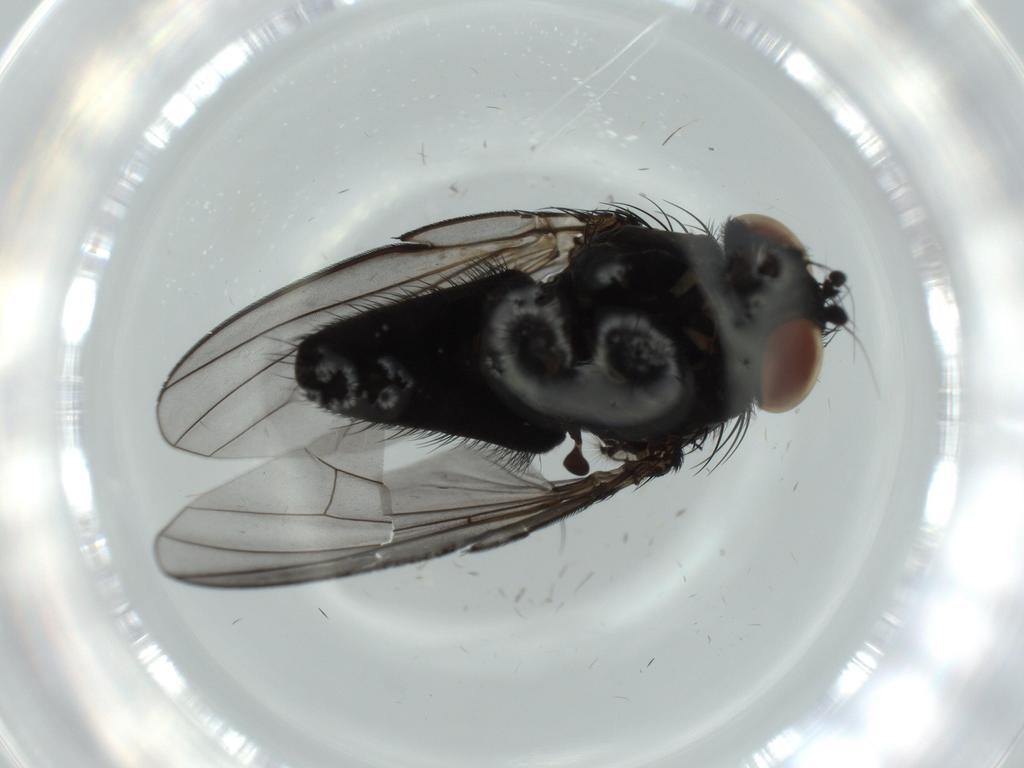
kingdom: Animalia
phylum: Arthropoda
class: Insecta
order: Diptera
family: Milichiidae
